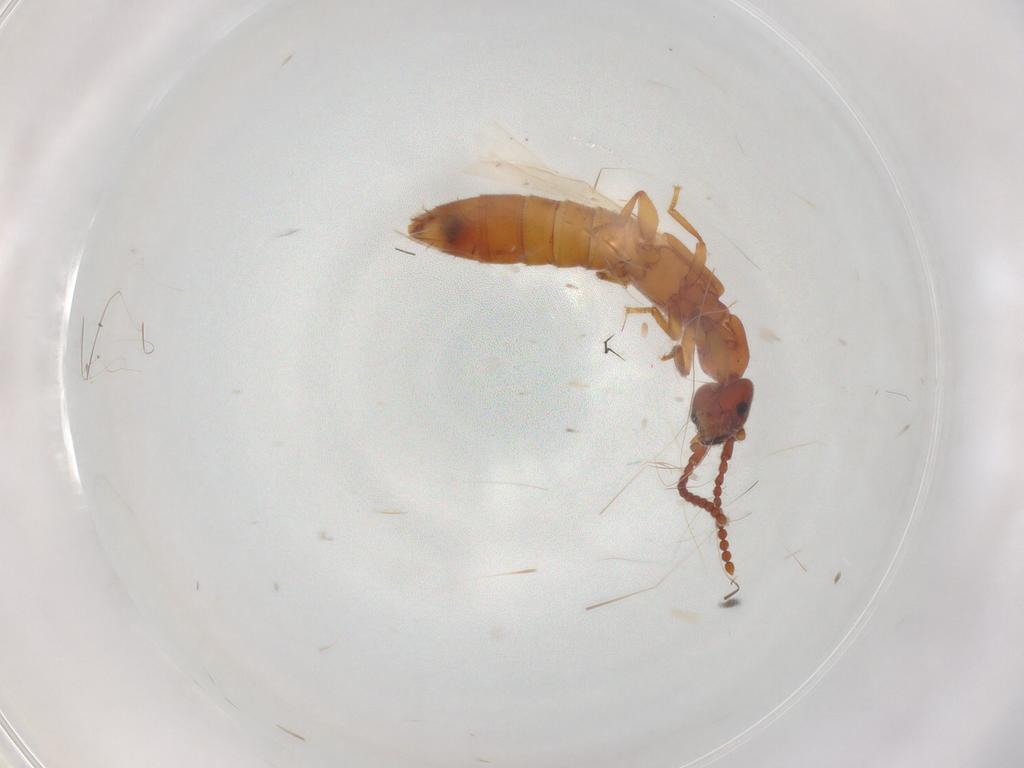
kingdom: Animalia
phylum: Arthropoda
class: Insecta
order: Coleoptera
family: Staphylinidae
